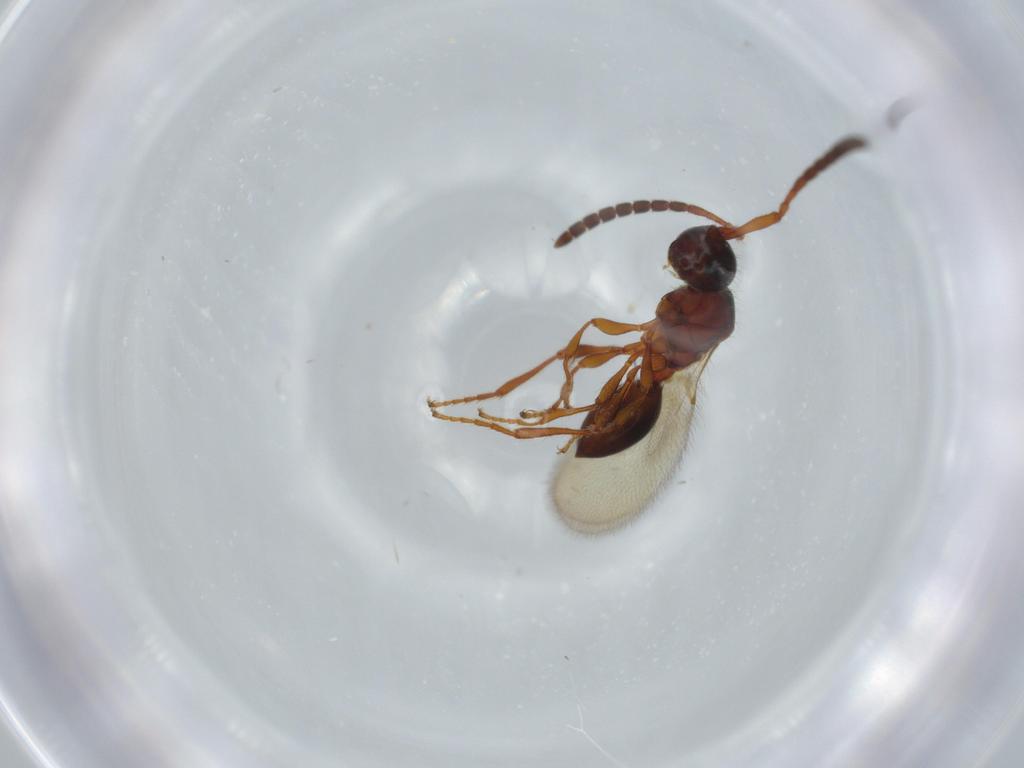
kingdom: Animalia
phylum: Arthropoda
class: Insecta
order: Hymenoptera
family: Diapriidae
